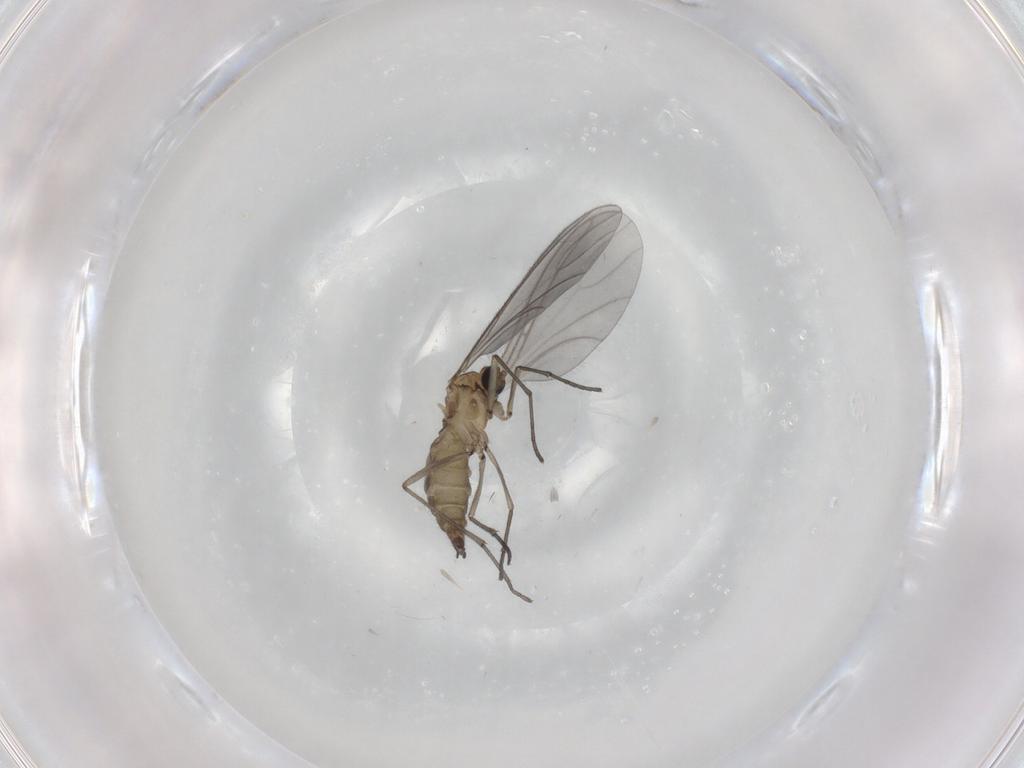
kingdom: Animalia
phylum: Arthropoda
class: Insecta
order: Diptera
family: Sciaridae
